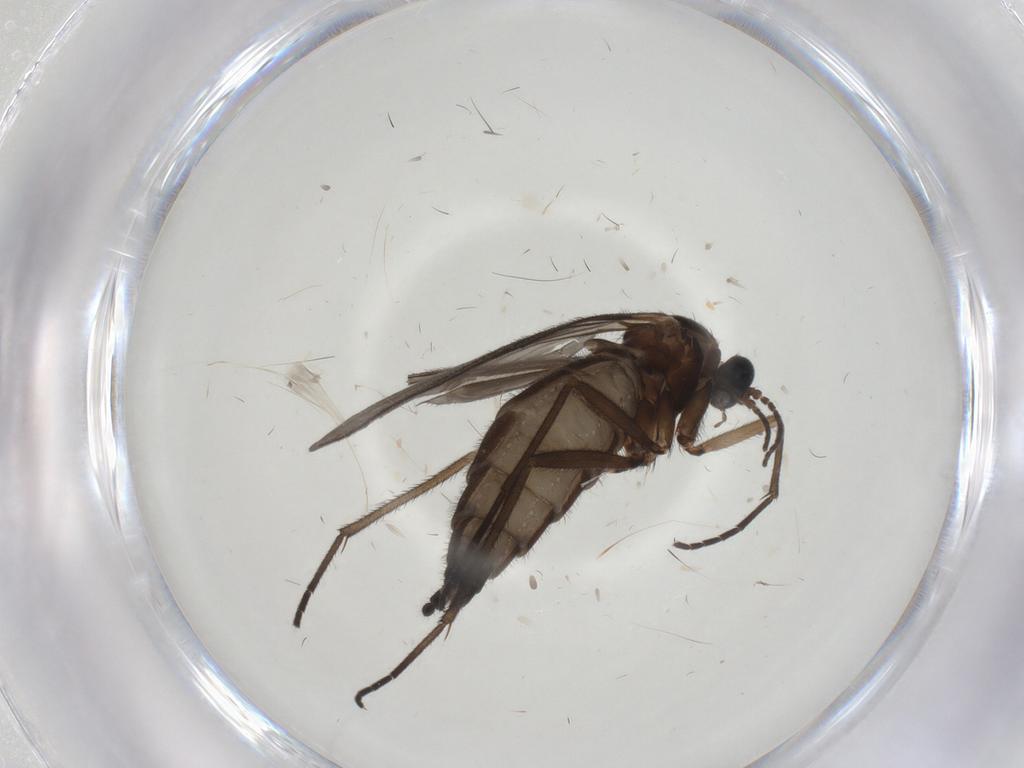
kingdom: Animalia
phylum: Arthropoda
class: Insecta
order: Diptera
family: Sciaridae
